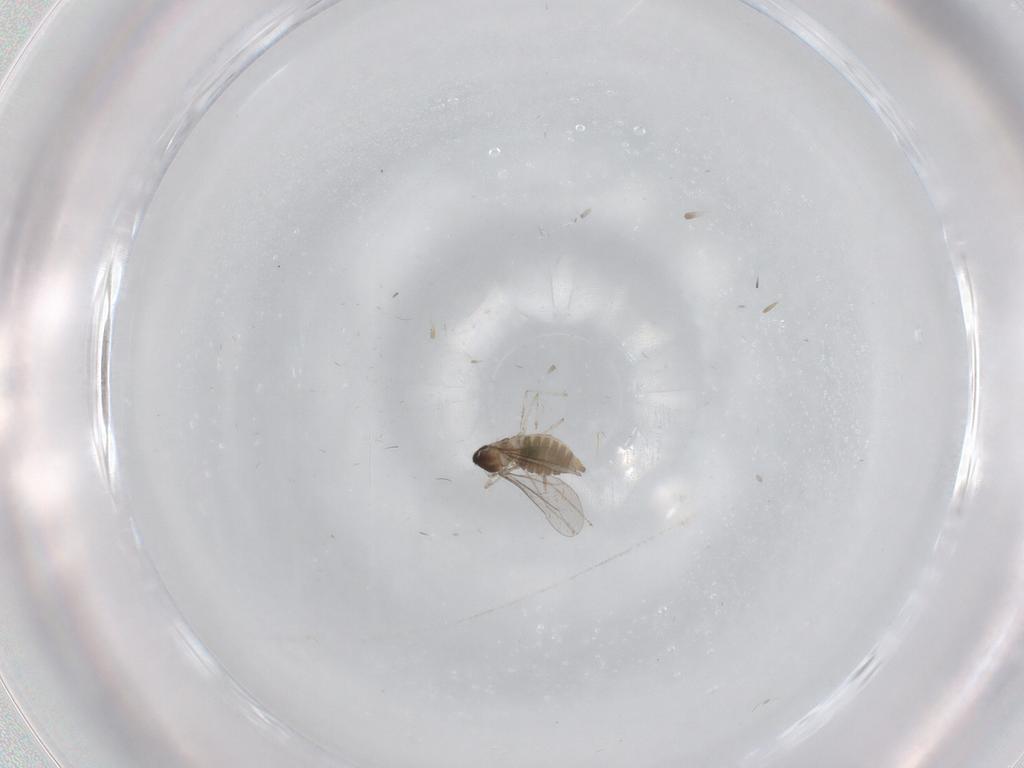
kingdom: Animalia
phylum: Arthropoda
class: Insecta
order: Diptera
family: Cecidomyiidae
